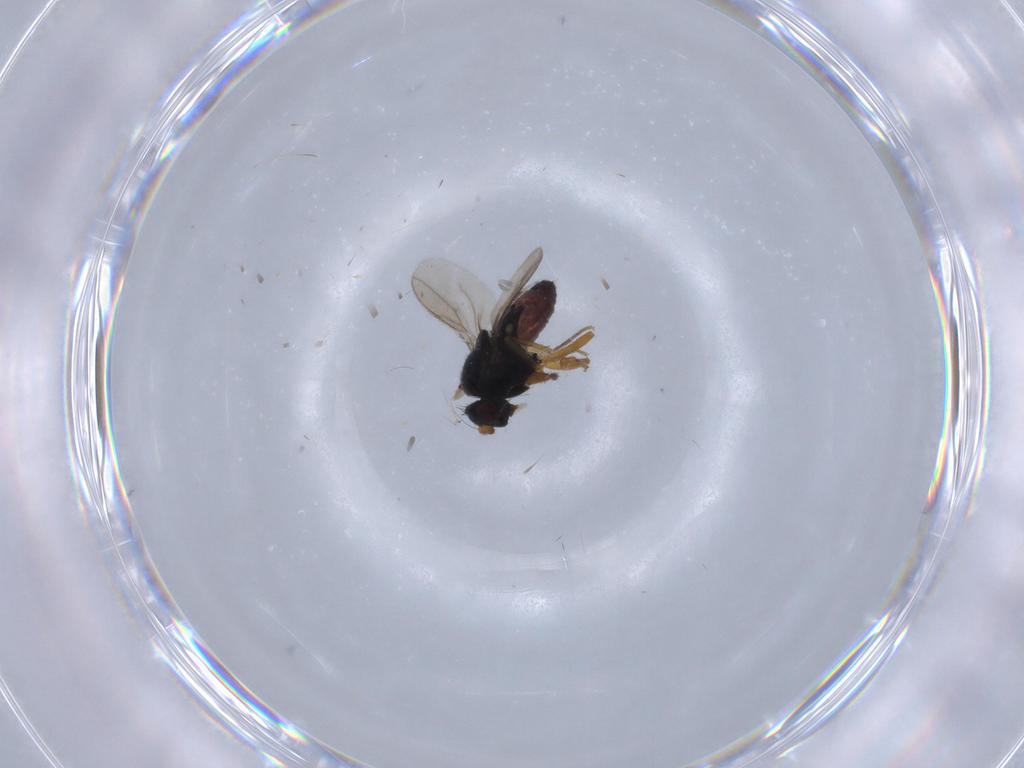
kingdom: Animalia
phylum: Arthropoda
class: Insecta
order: Diptera
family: Sphaeroceridae
